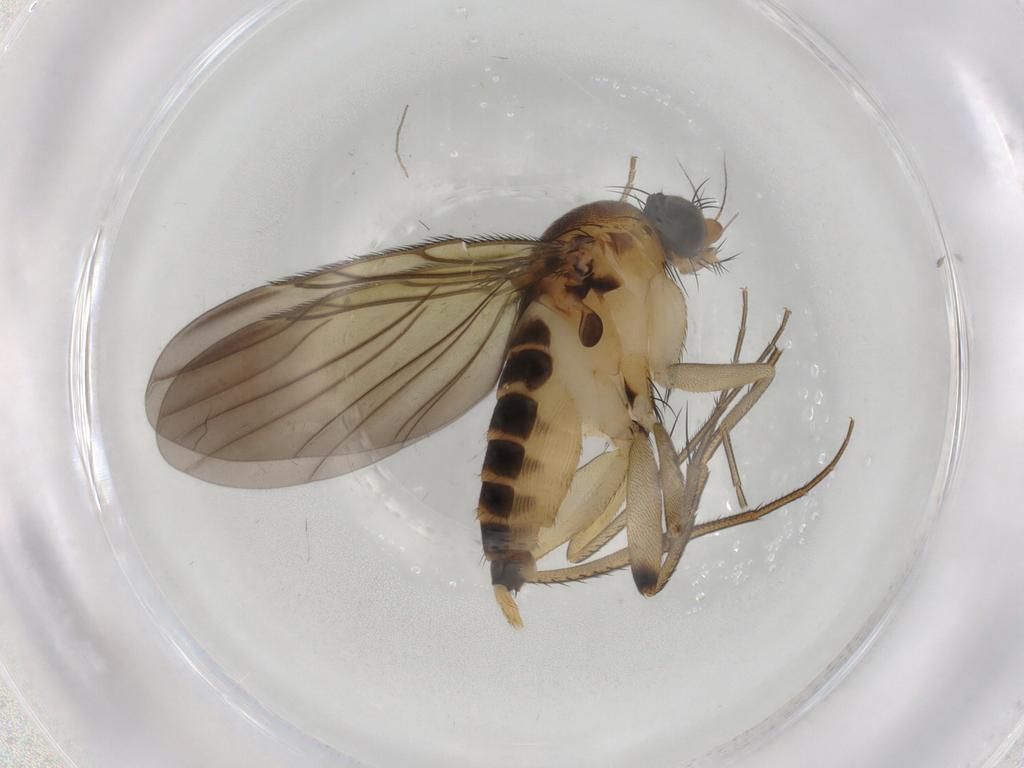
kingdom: Animalia
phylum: Arthropoda
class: Insecta
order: Diptera
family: Phoridae
